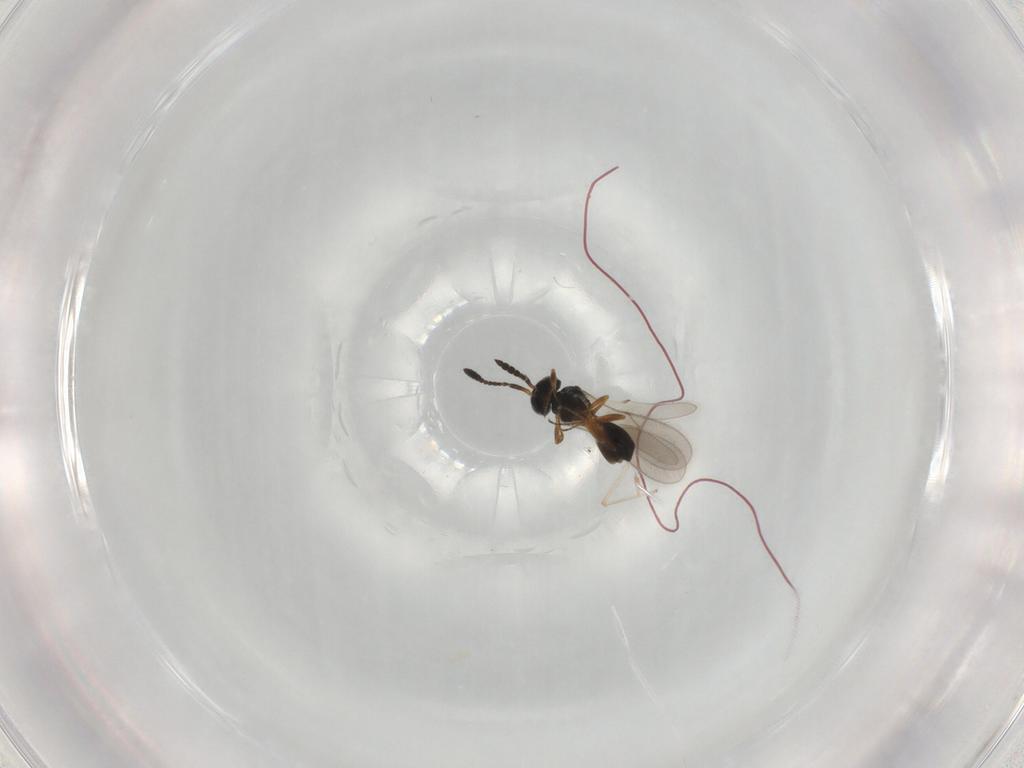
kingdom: Animalia
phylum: Arthropoda
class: Insecta
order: Hymenoptera
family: Scelionidae
